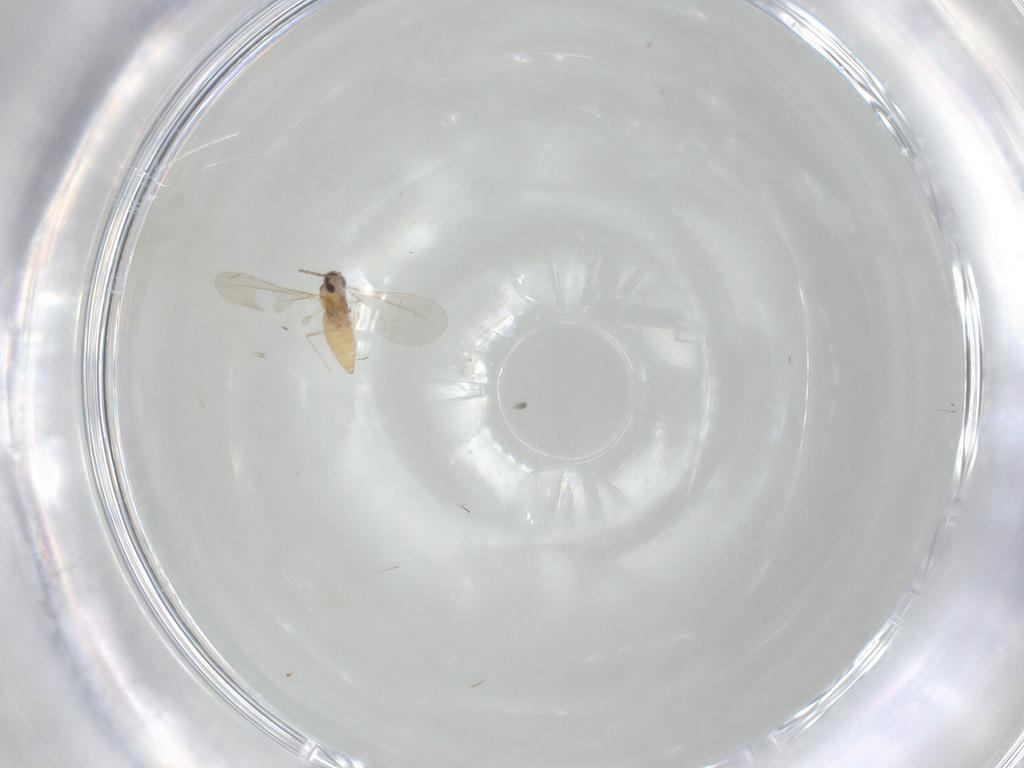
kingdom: Animalia
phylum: Arthropoda
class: Insecta
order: Diptera
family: Cecidomyiidae
